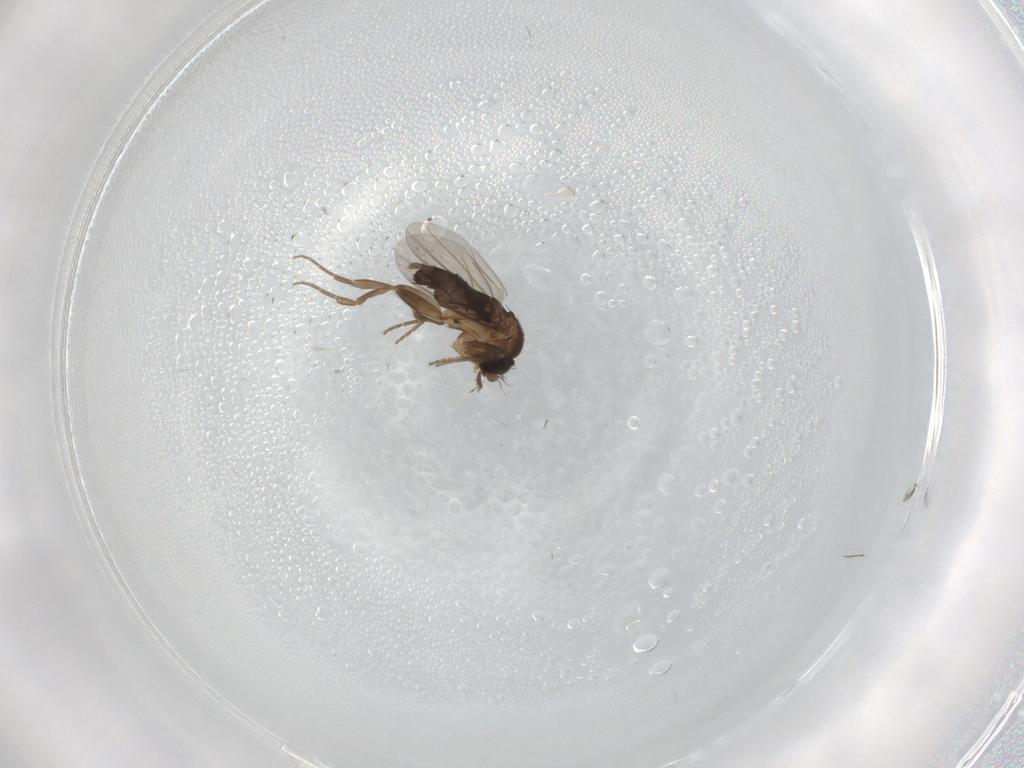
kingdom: Animalia
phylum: Arthropoda
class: Insecta
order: Diptera
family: Phoridae
